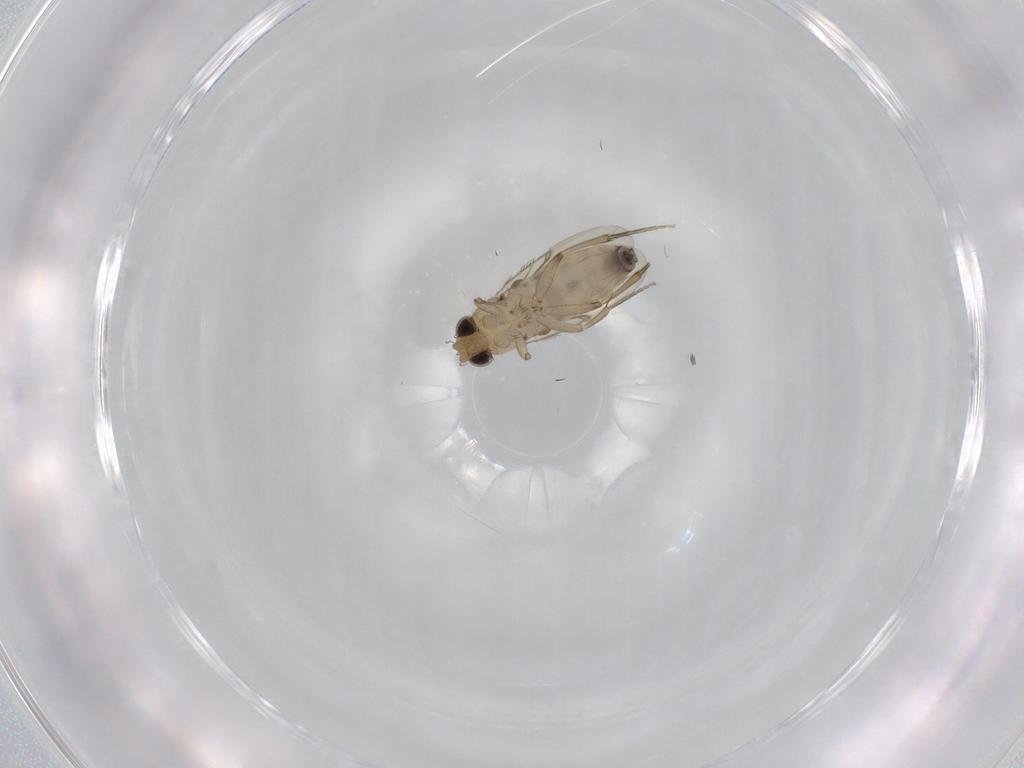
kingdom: Animalia
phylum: Arthropoda
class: Insecta
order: Diptera
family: Phoridae
